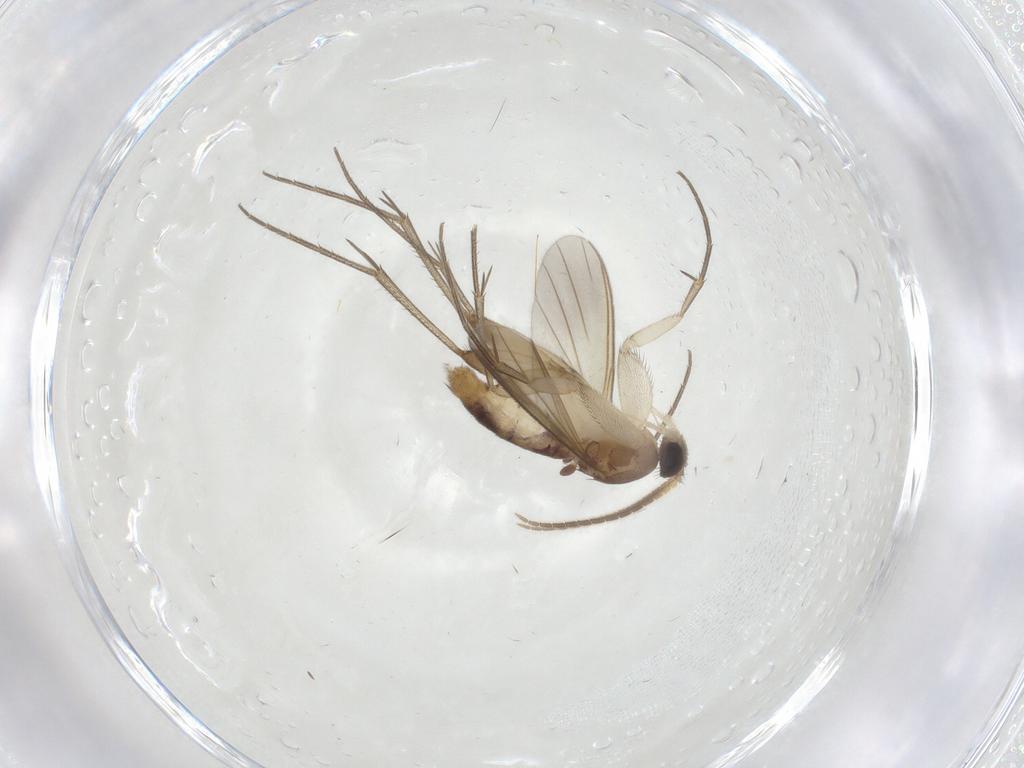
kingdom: Animalia
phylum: Arthropoda
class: Insecta
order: Diptera
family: Mycetophilidae
